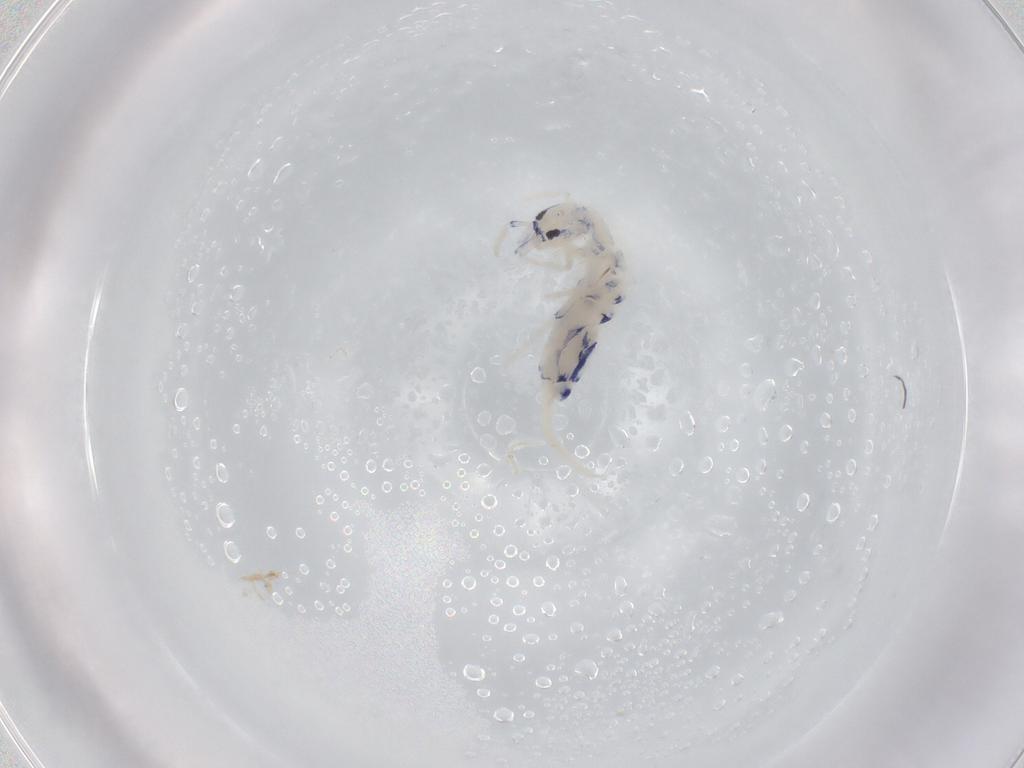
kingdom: Animalia
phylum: Arthropoda
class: Collembola
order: Entomobryomorpha
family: Entomobryidae
